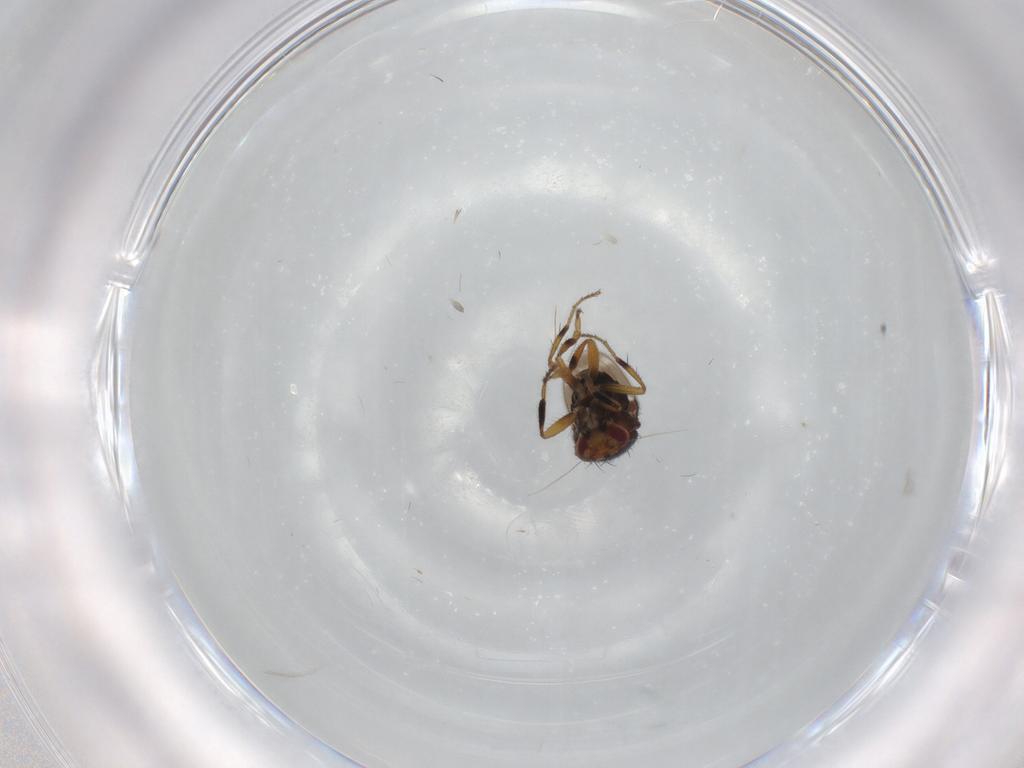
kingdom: Animalia
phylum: Arthropoda
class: Insecta
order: Diptera
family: Sphaeroceridae
